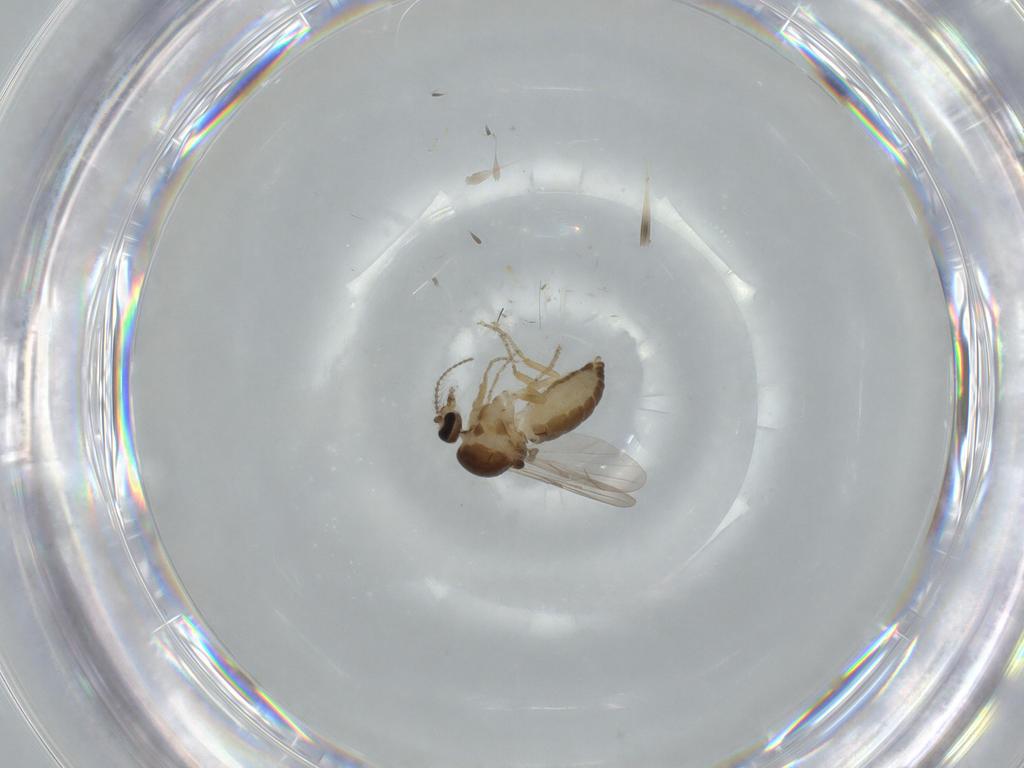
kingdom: Animalia
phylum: Arthropoda
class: Insecta
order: Diptera
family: Ceratopogonidae
